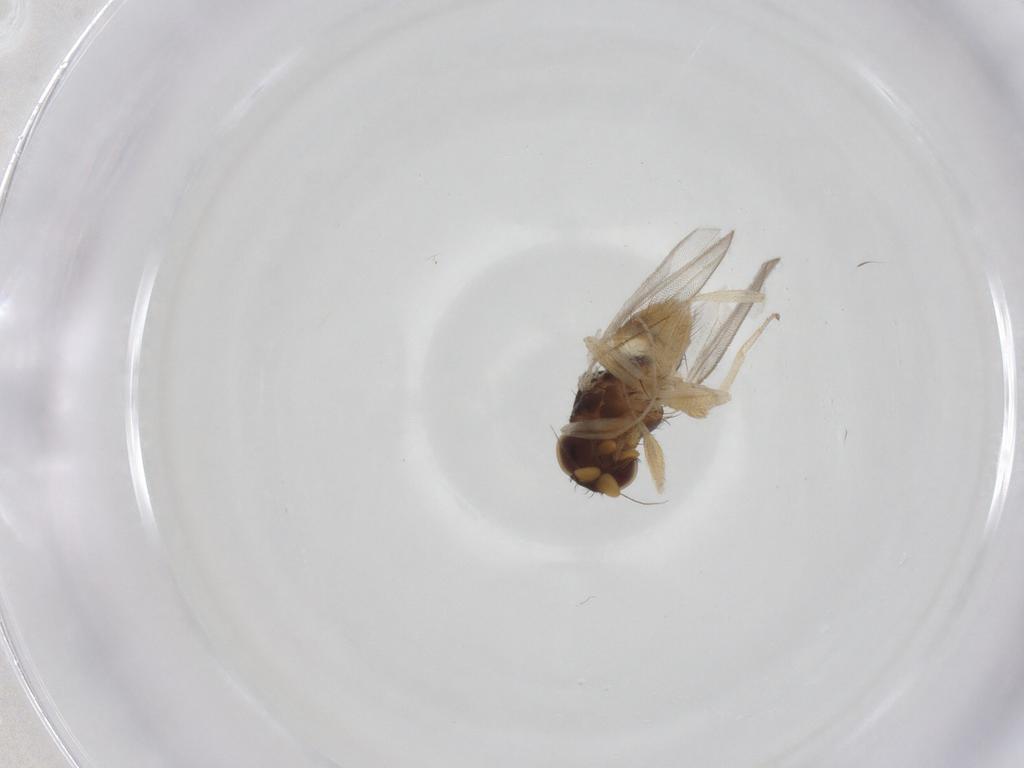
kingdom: Animalia
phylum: Arthropoda
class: Insecta
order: Diptera
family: Milichiidae
